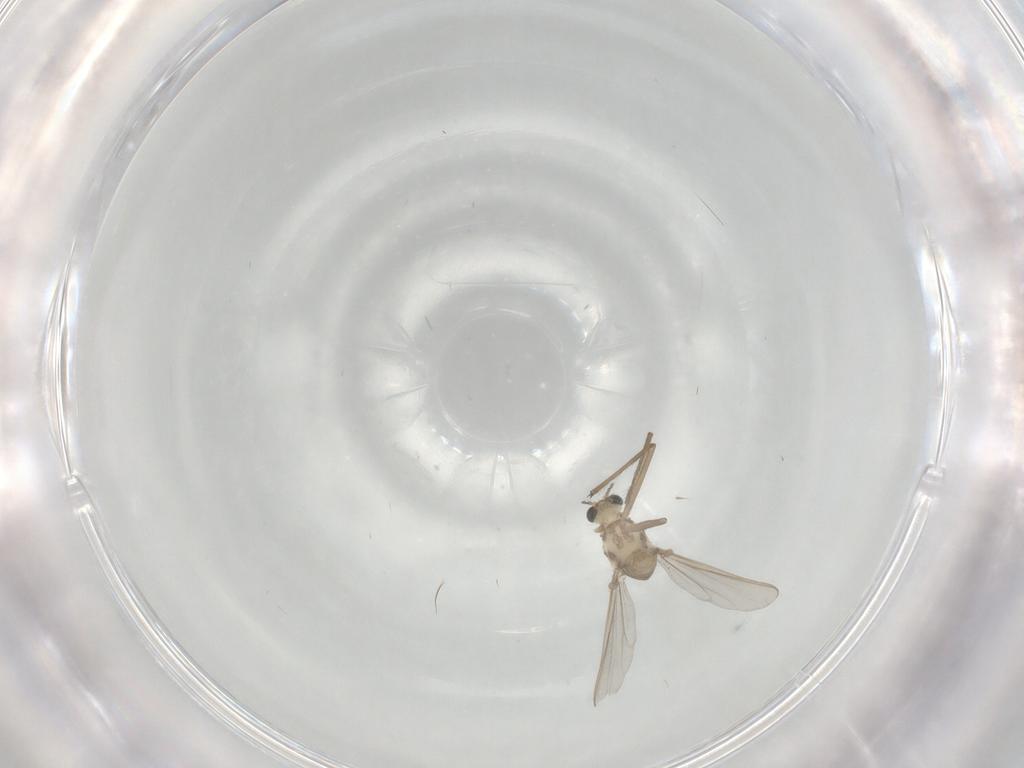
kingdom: Animalia
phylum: Arthropoda
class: Insecta
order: Diptera
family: Chironomidae
